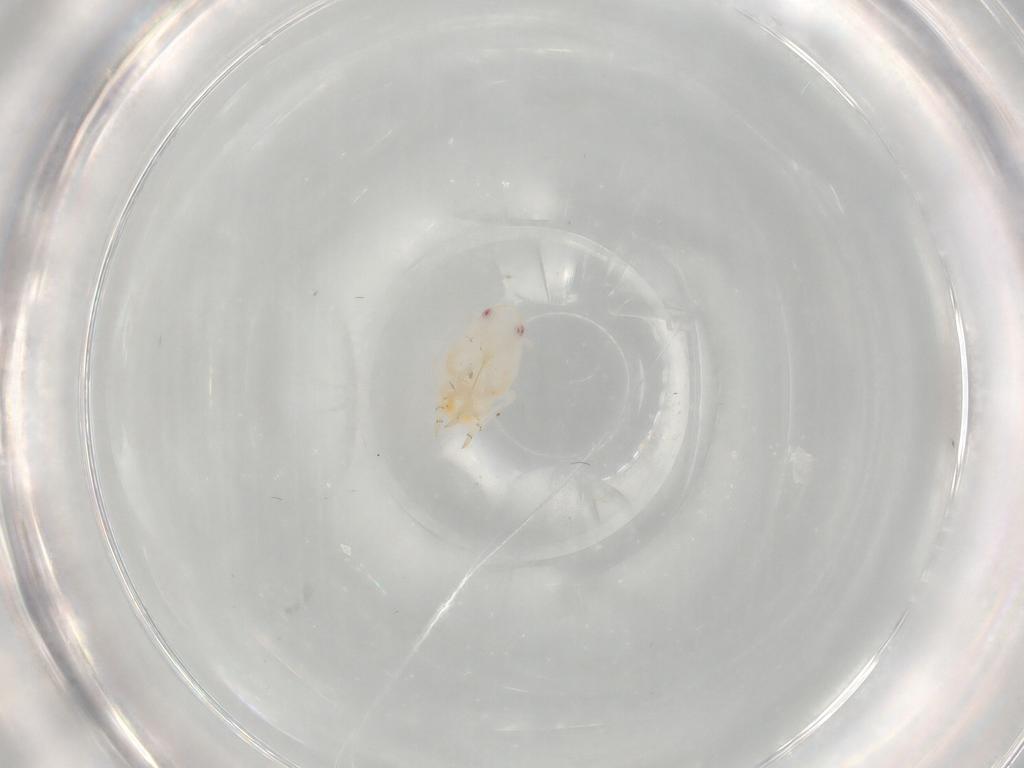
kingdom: Animalia
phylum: Arthropoda
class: Insecta
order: Hemiptera
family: Flatidae
